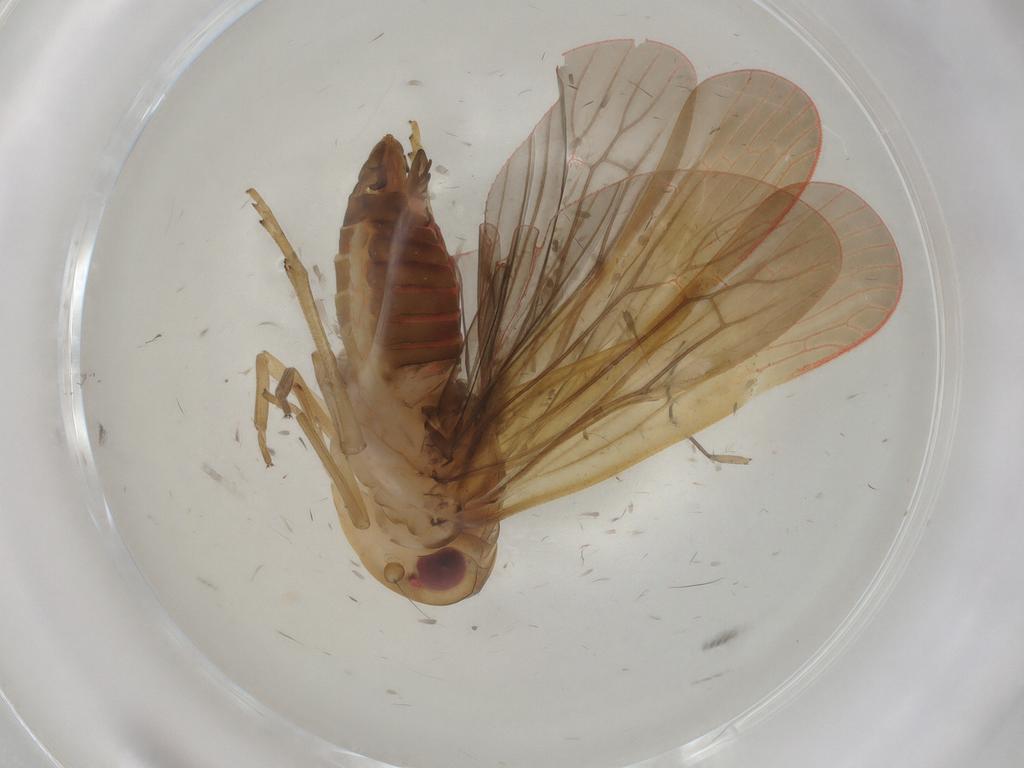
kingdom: Animalia
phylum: Arthropoda
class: Insecta
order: Hemiptera
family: Achilidae
